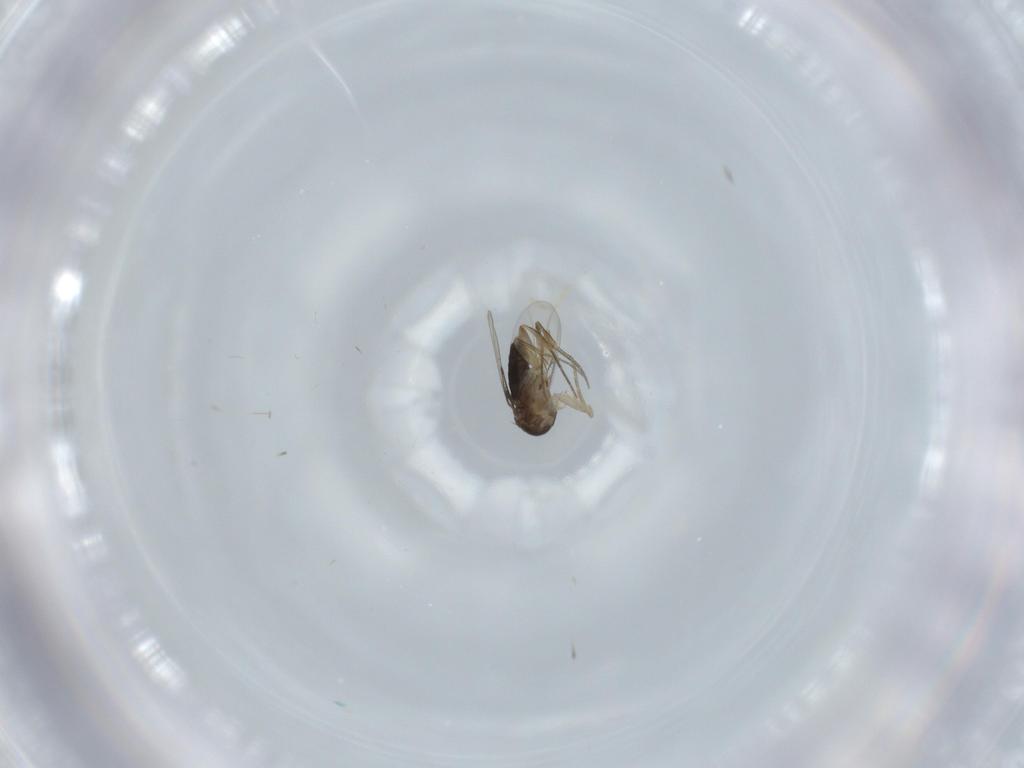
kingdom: Animalia
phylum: Arthropoda
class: Insecta
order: Diptera
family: Phoridae
